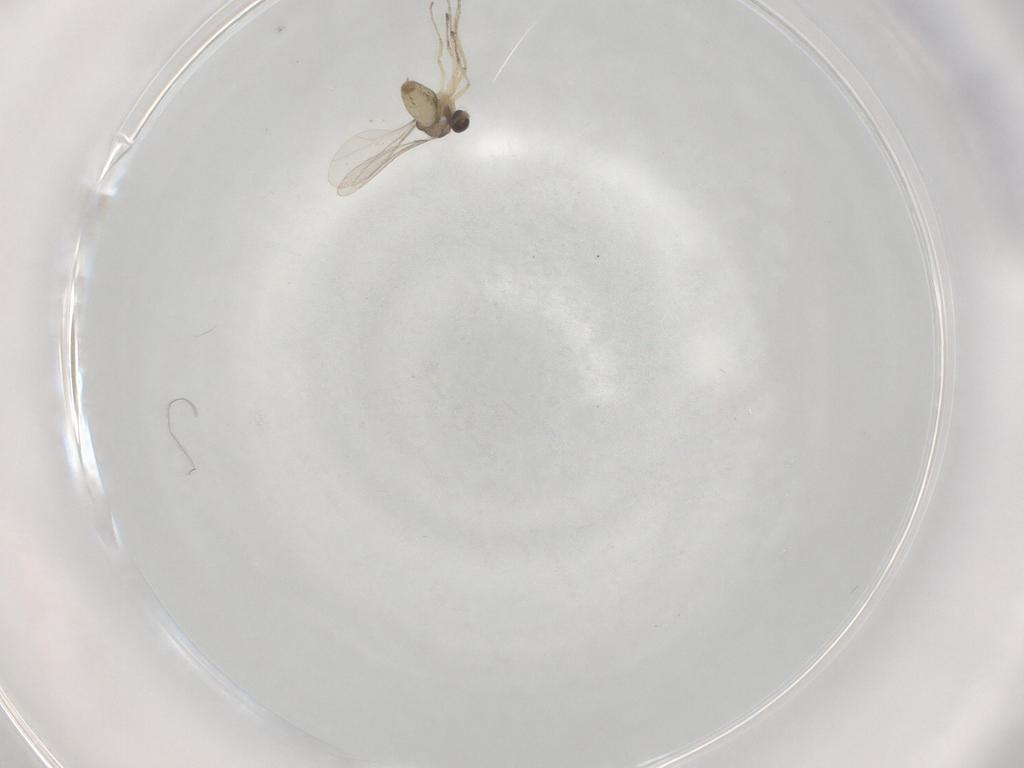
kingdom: Animalia
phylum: Arthropoda
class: Insecta
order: Diptera
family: Cecidomyiidae
